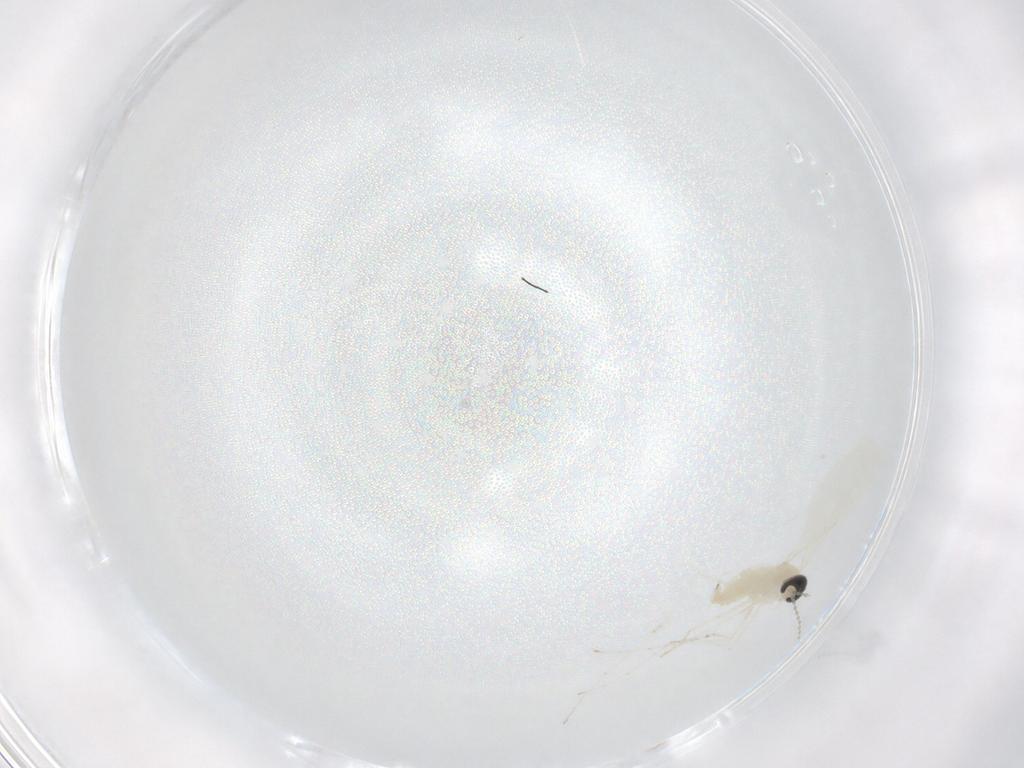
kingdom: Animalia
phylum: Arthropoda
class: Insecta
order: Diptera
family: Cecidomyiidae
